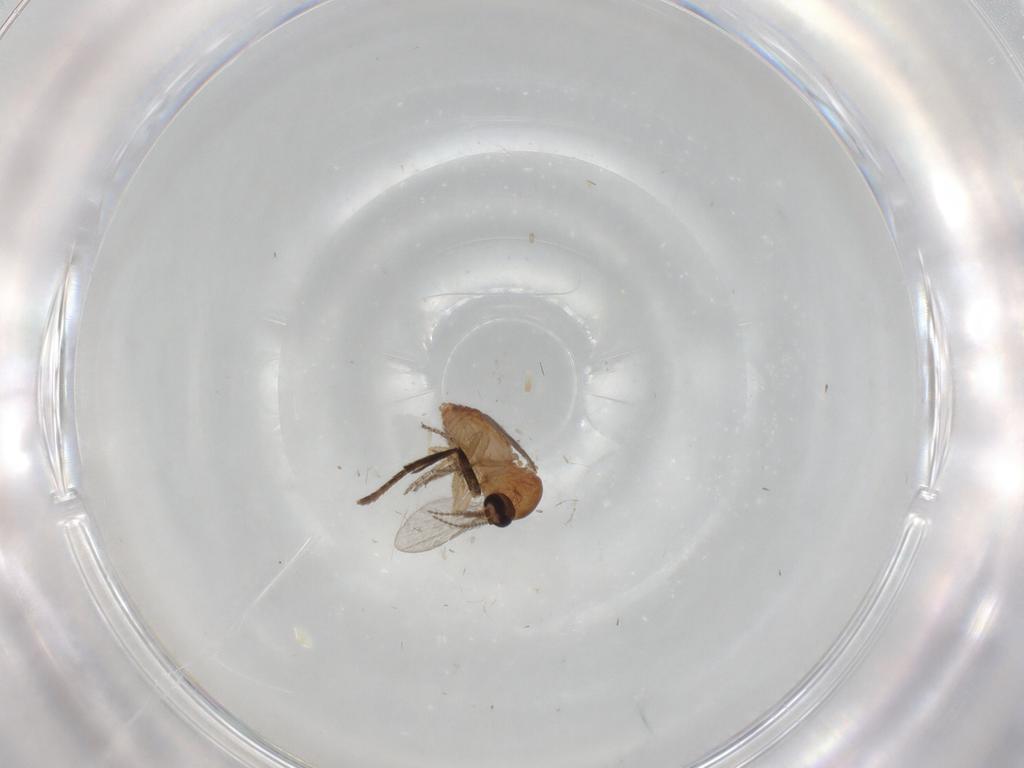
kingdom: Animalia
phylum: Arthropoda
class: Insecta
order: Diptera
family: Ceratopogonidae
